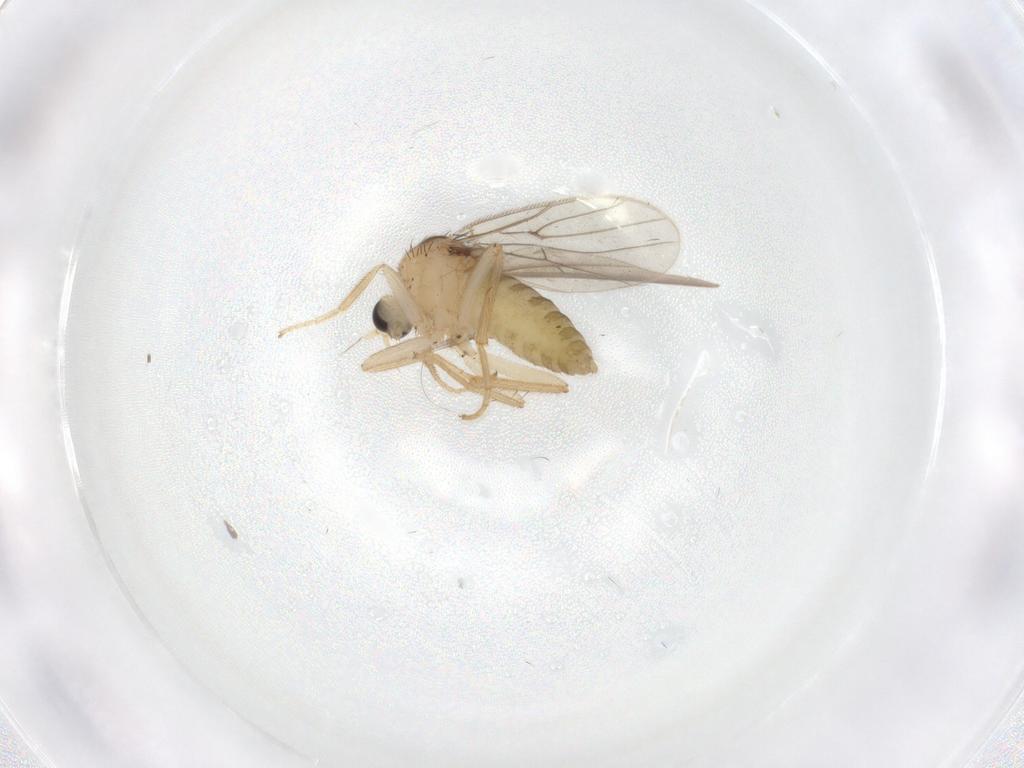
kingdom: Animalia
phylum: Arthropoda
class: Insecta
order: Diptera
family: Hybotidae
